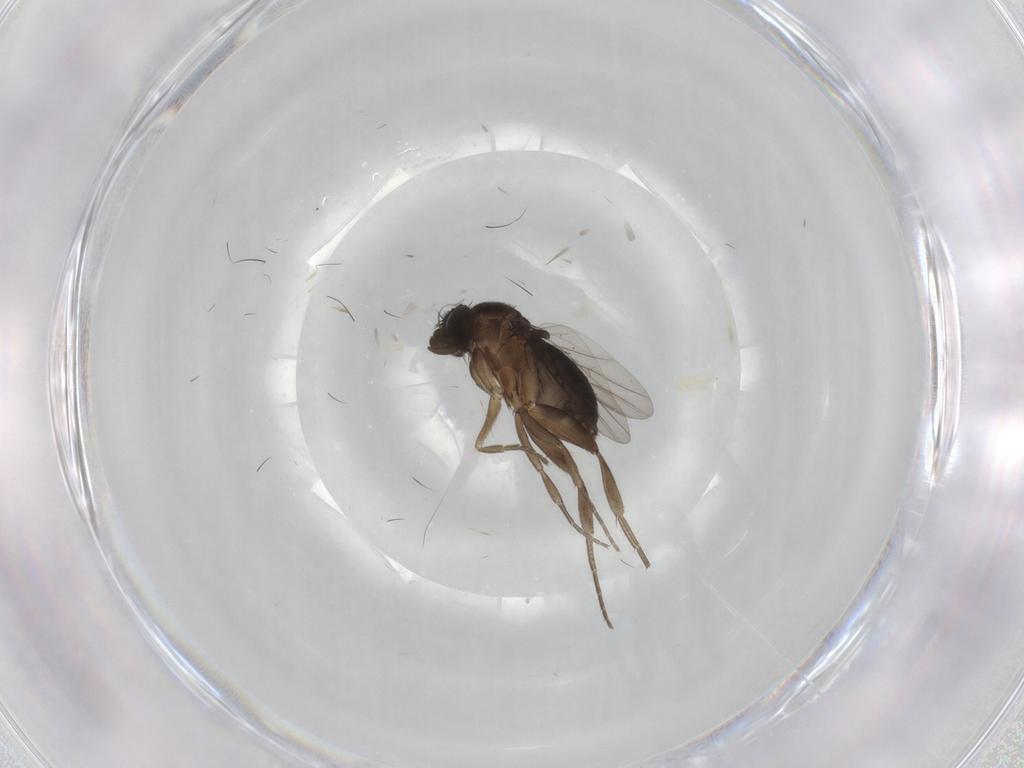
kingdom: Animalia
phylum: Arthropoda
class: Insecta
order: Diptera
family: Phoridae
